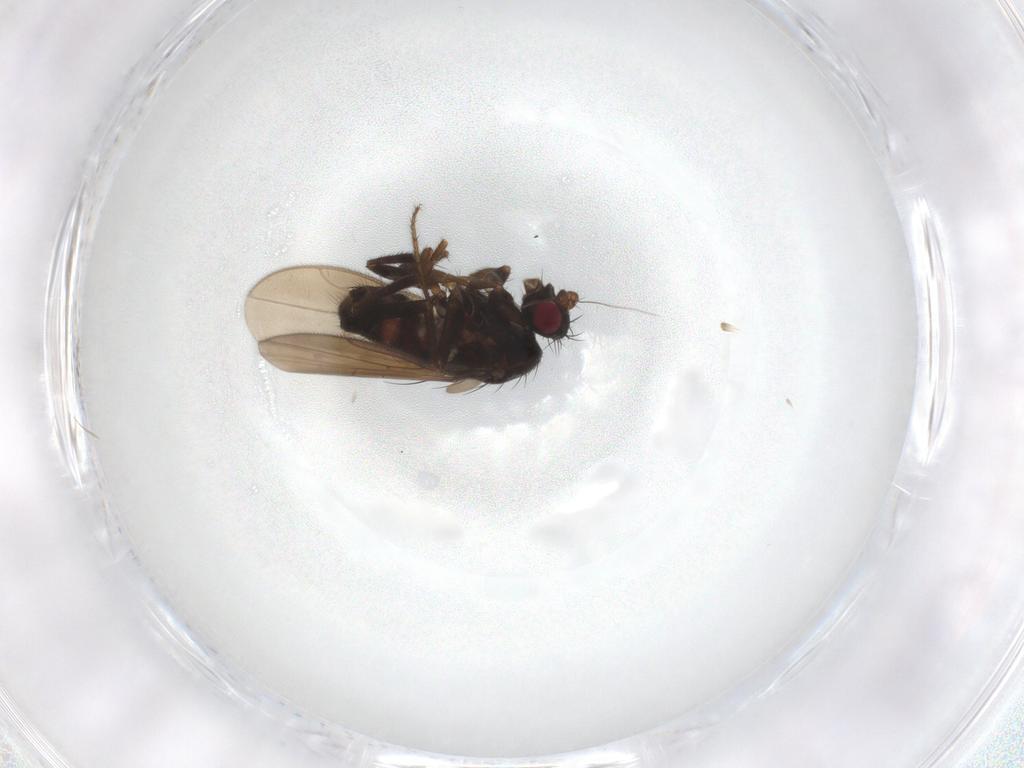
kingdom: Animalia
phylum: Arthropoda
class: Insecta
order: Diptera
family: Sphaeroceridae
